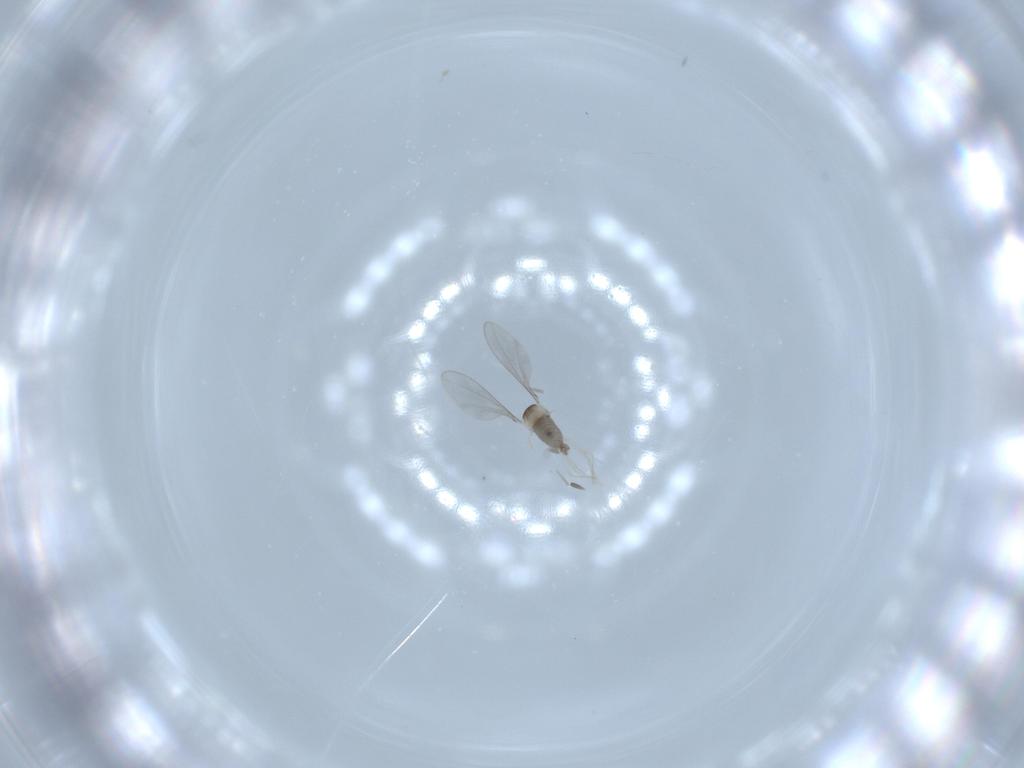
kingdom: Animalia
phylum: Arthropoda
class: Insecta
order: Diptera
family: Cecidomyiidae
